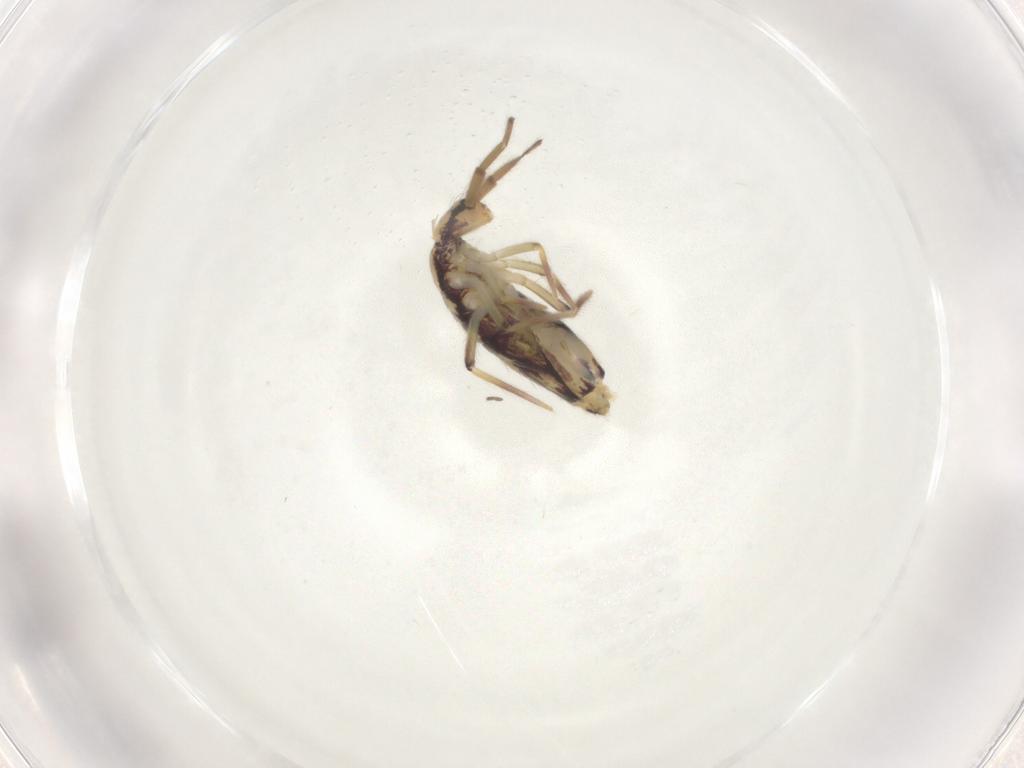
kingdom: Animalia
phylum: Arthropoda
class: Collembola
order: Entomobryomorpha
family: Entomobryidae
